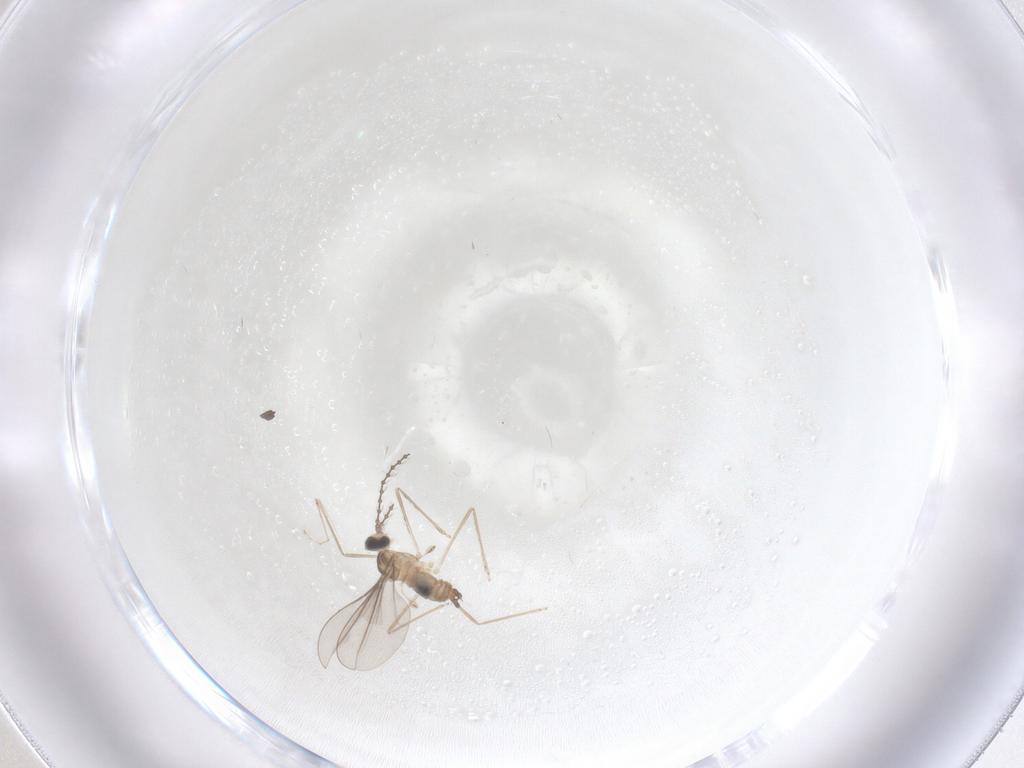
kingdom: Animalia
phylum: Arthropoda
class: Insecta
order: Diptera
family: Cecidomyiidae
